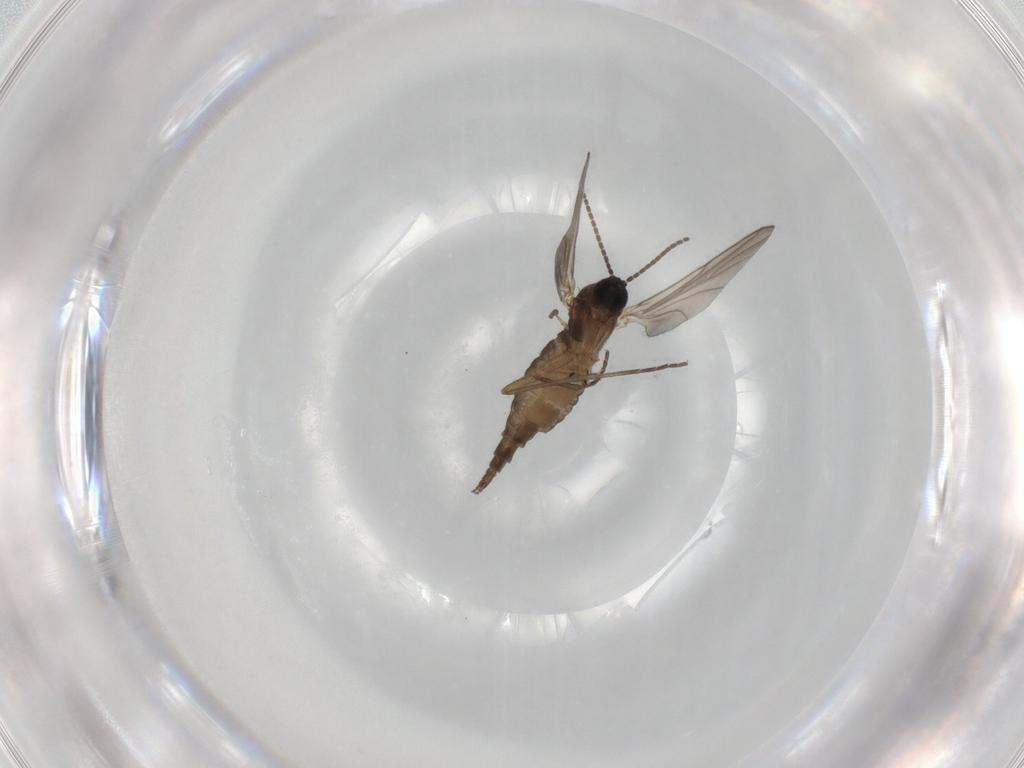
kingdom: Animalia
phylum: Arthropoda
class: Insecta
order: Diptera
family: Sciaridae
